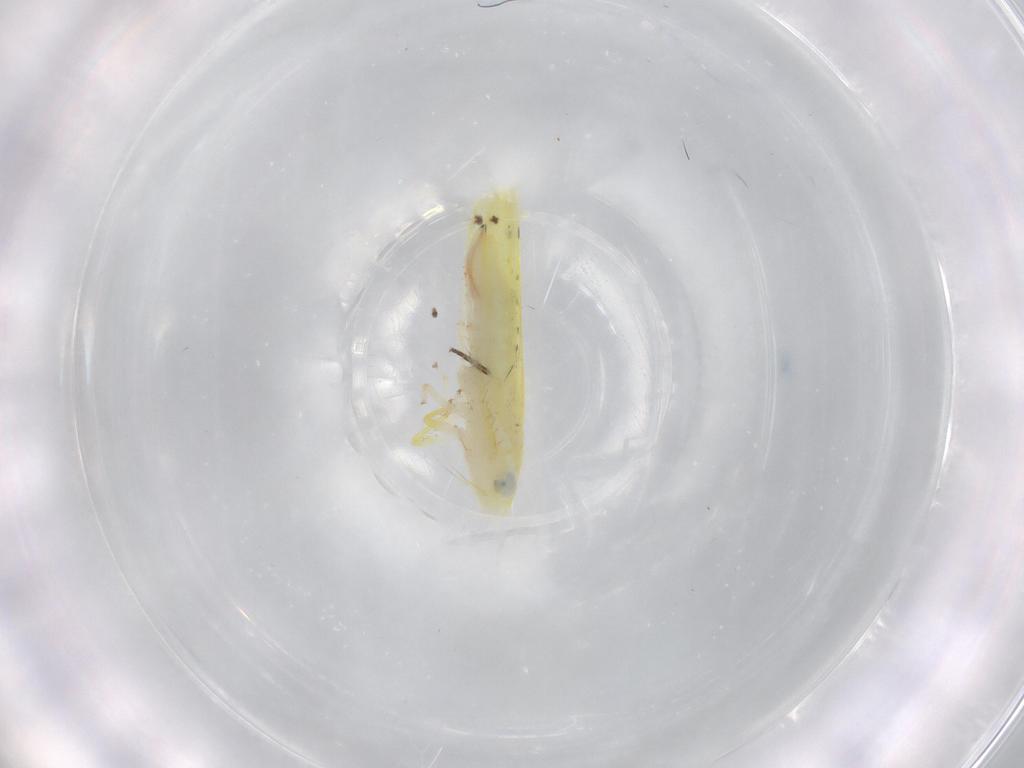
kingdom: Animalia
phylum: Arthropoda
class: Insecta
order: Hemiptera
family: Cicadellidae
